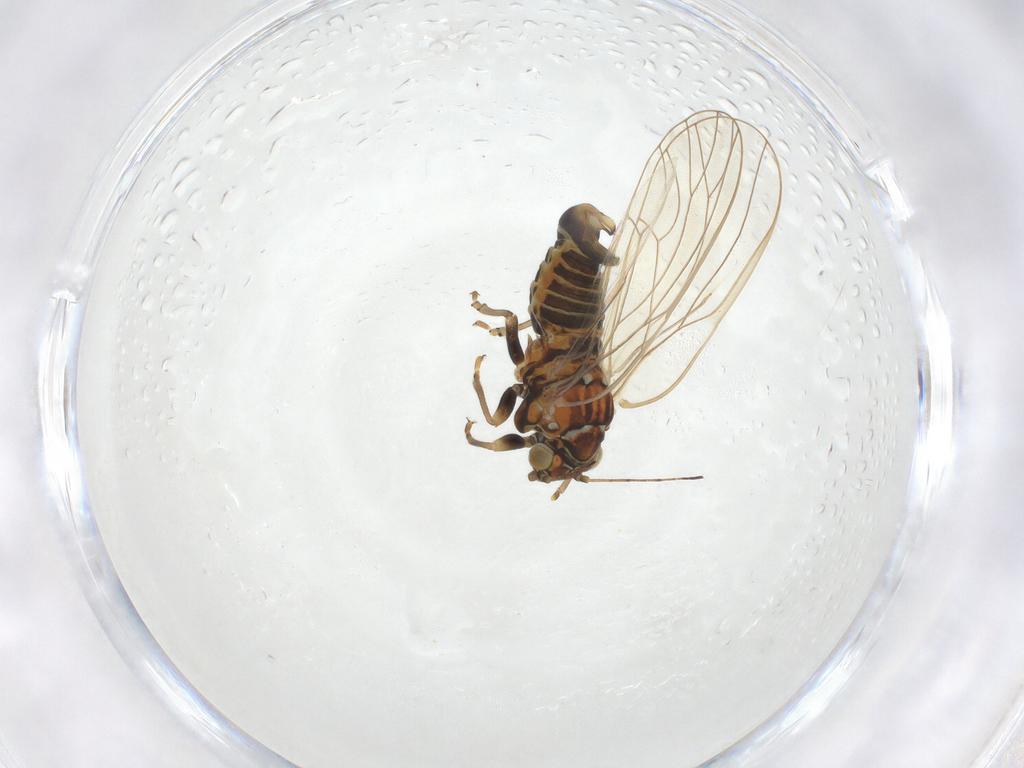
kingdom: Animalia
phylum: Arthropoda
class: Insecta
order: Hemiptera
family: Psyllidae
